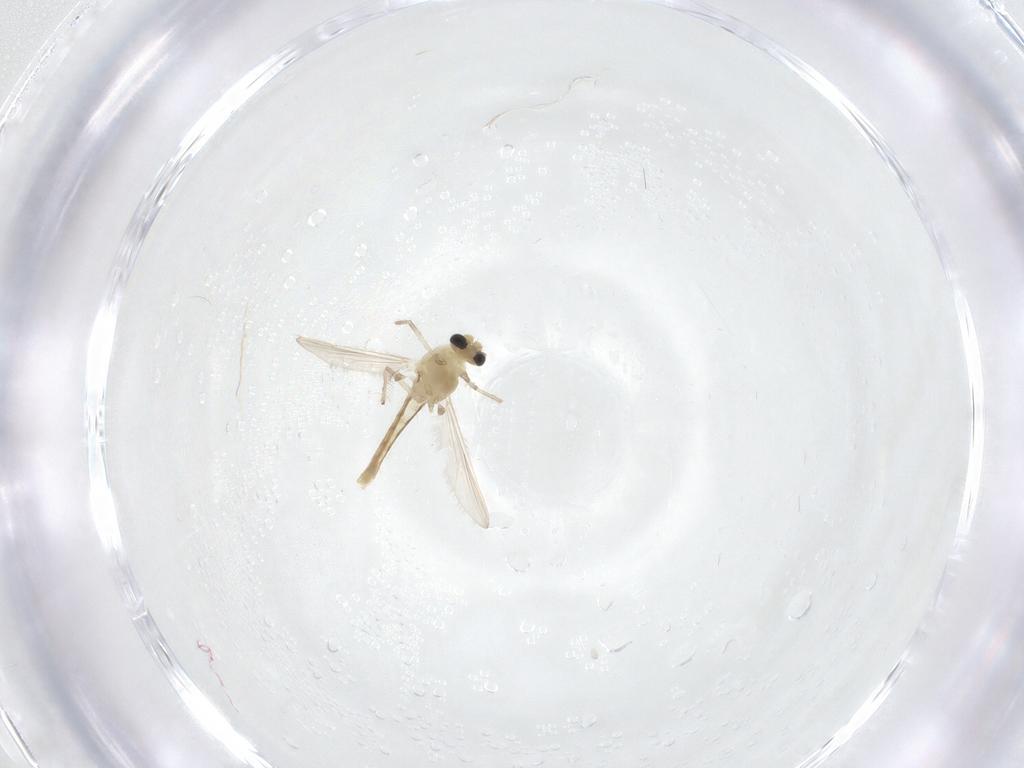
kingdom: Animalia
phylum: Arthropoda
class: Insecta
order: Diptera
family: Chironomidae
